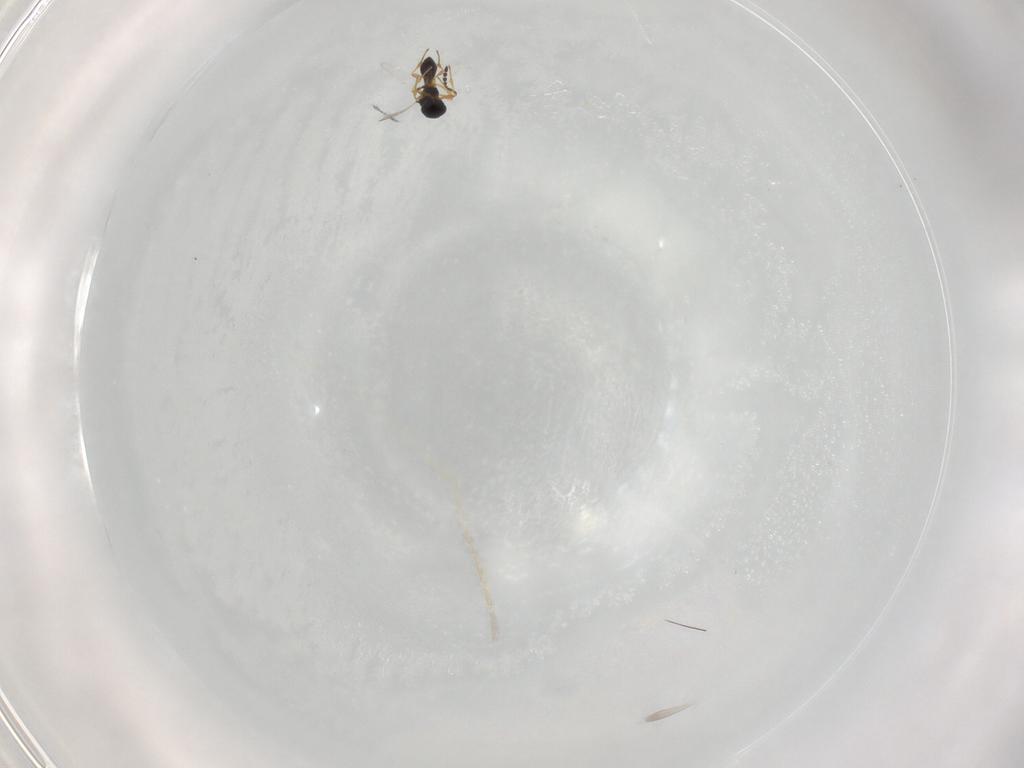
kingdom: Animalia
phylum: Arthropoda
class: Insecta
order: Hymenoptera
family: Platygastridae
